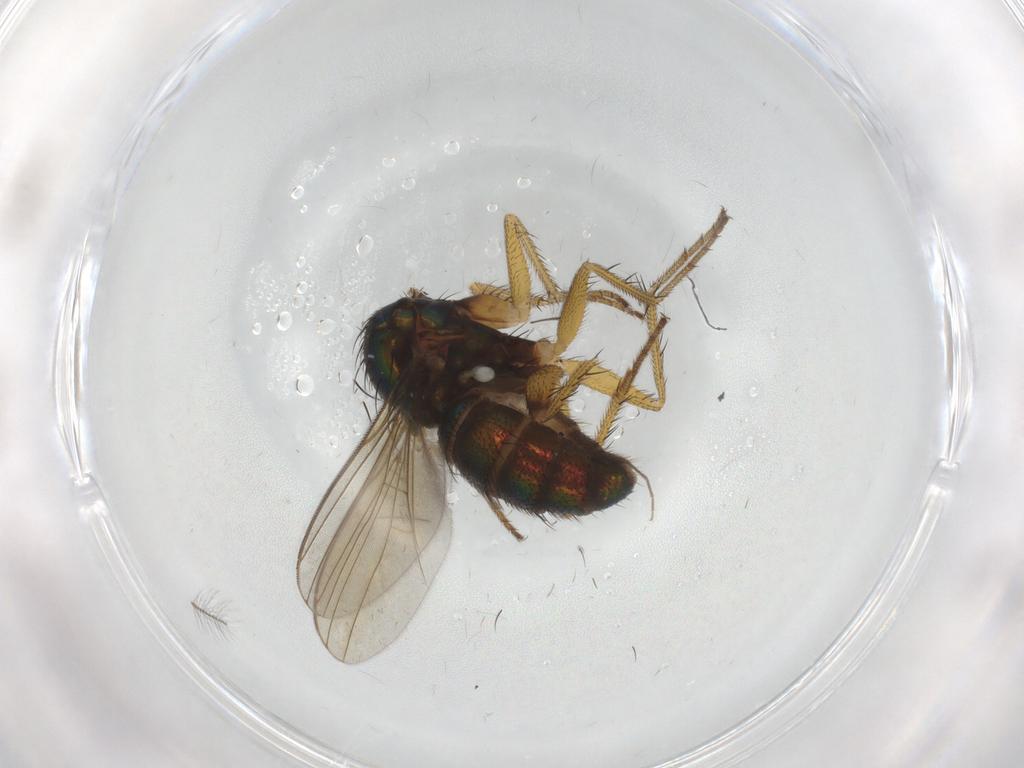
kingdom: Animalia
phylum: Arthropoda
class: Insecta
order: Diptera
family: Dolichopodidae
